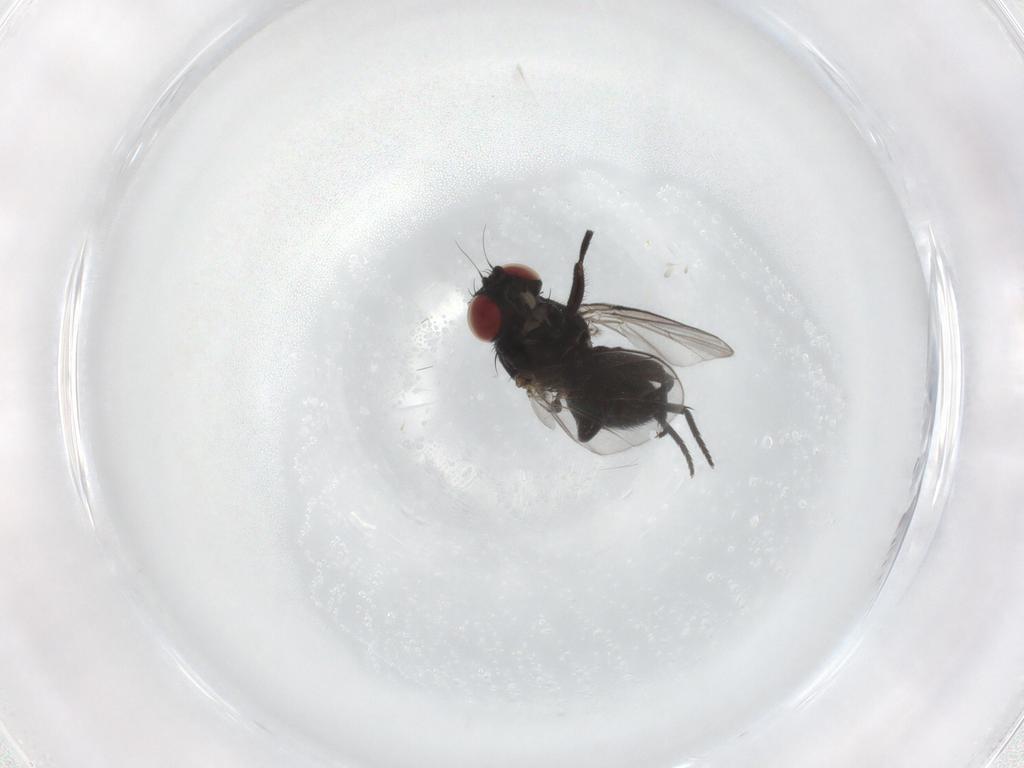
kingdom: Animalia
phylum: Arthropoda
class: Insecta
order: Diptera
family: Agromyzidae
